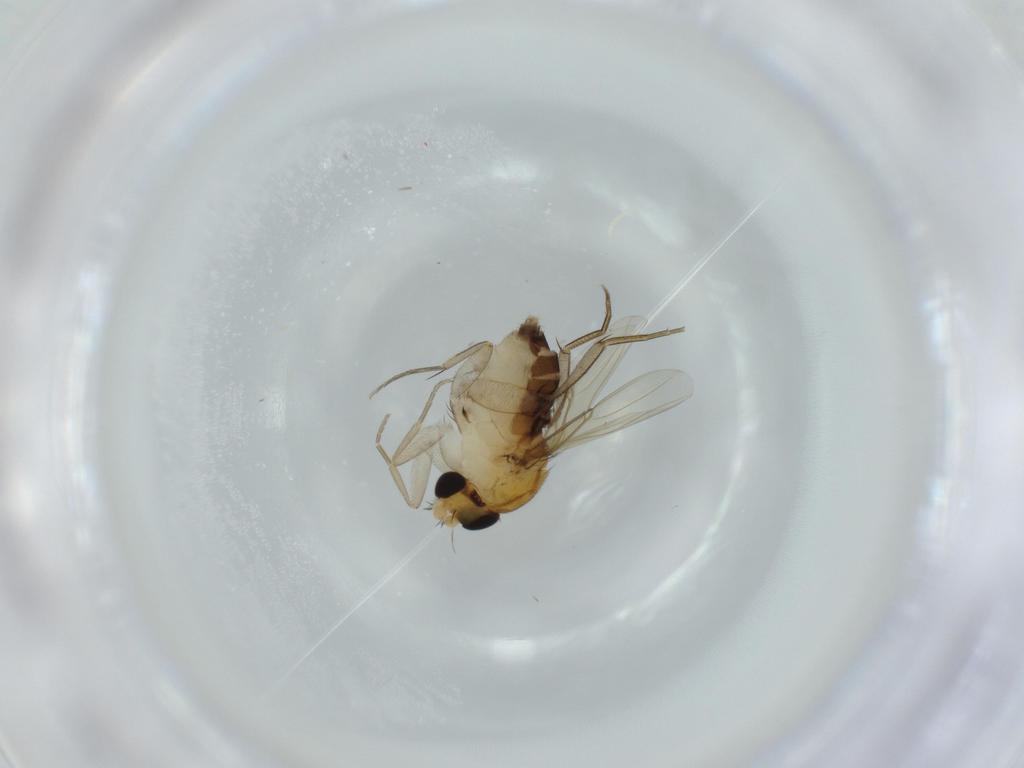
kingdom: Animalia
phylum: Arthropoda
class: Insecta
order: Diptera
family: Phoridae
